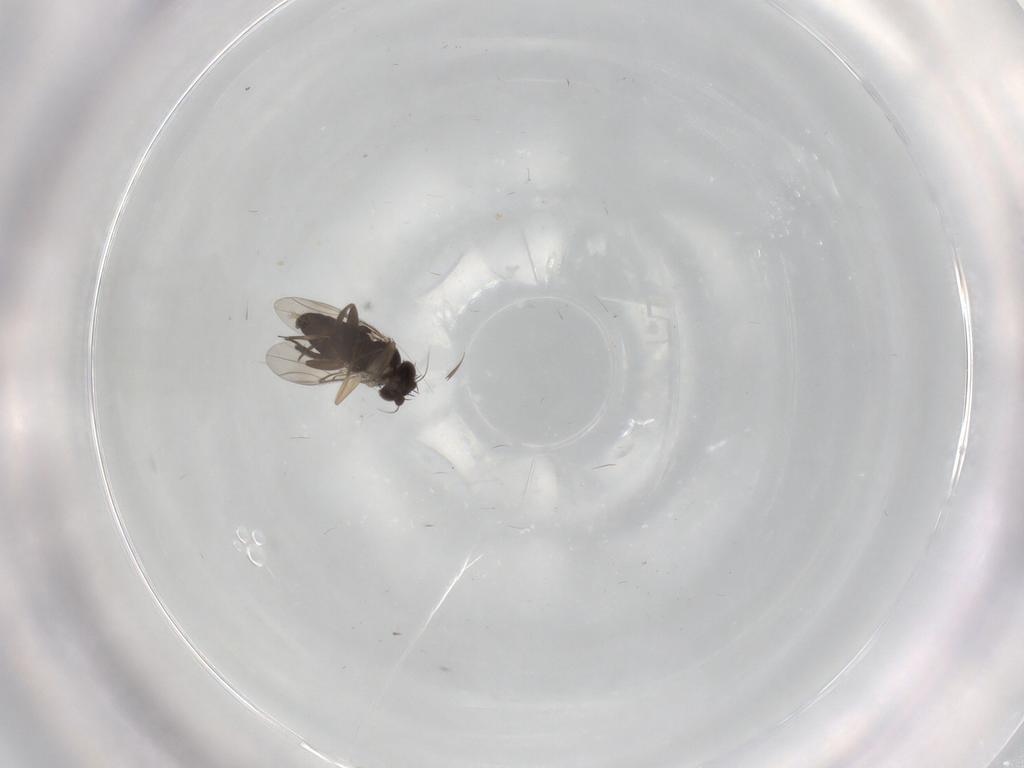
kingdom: Animalia
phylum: Arthropoda
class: Insecta
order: Diptera
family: Phoridae
